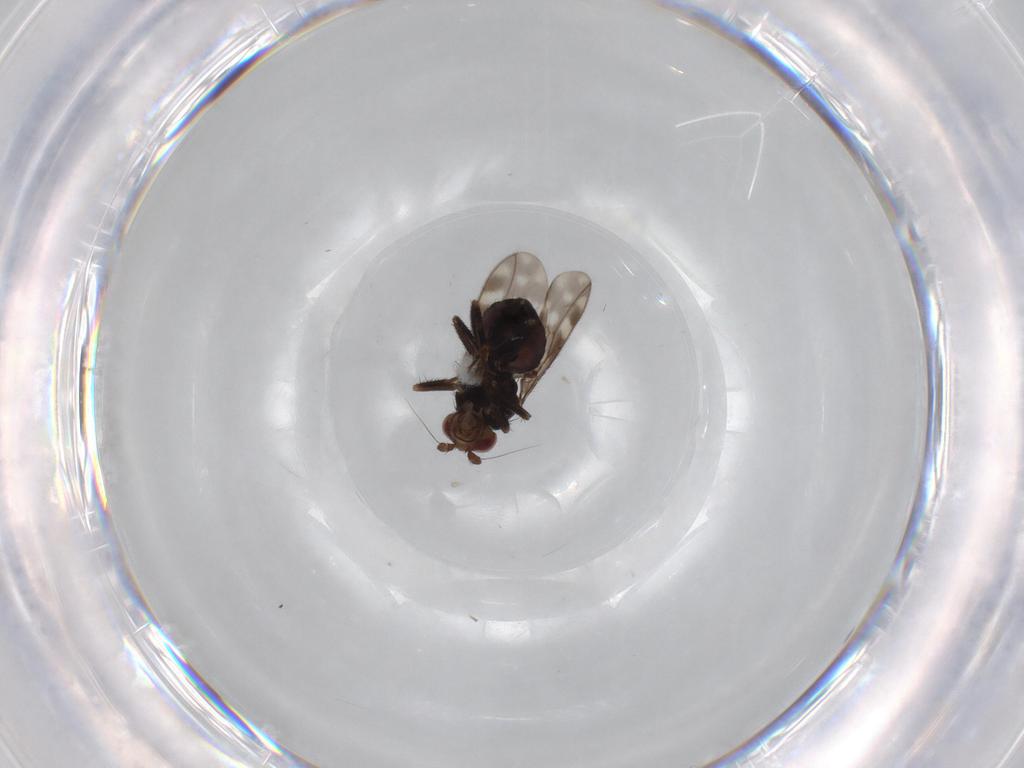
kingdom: Animalia
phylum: Arthropoda
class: Insecta
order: Diptera
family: Sphaeroceridae
